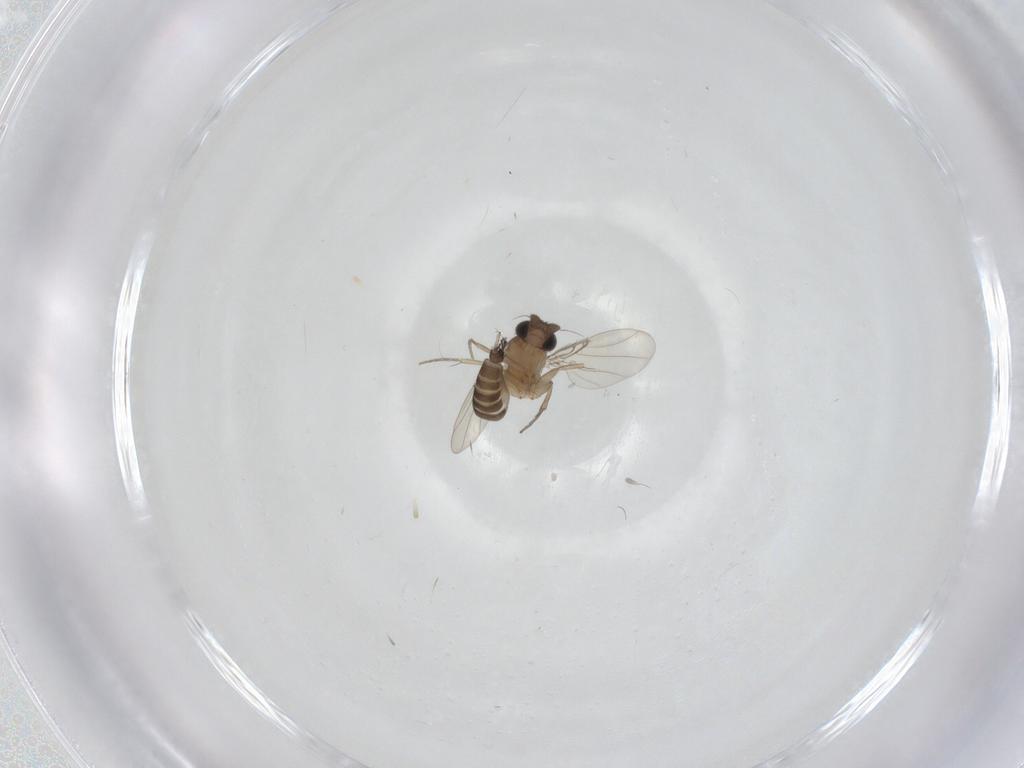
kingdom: Animalia
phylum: Arthropoda
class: Insecta
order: Diptera
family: Phoridae
